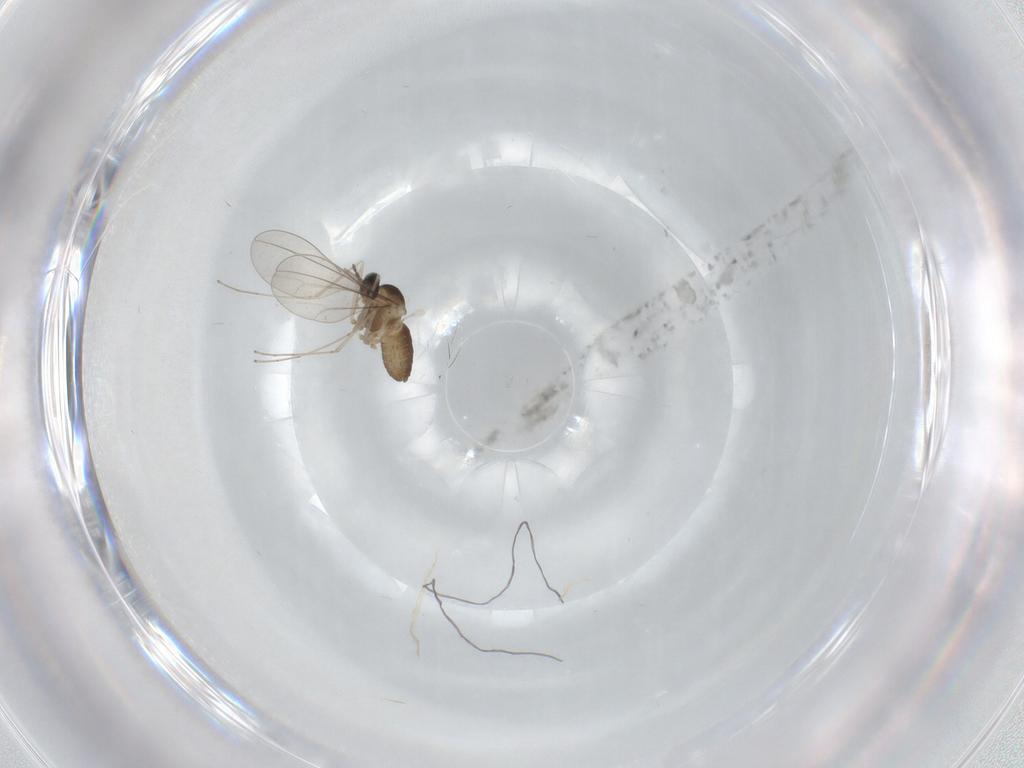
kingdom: Animalia
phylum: Arthropoda
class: Insecta
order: Diptera
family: Cecidomyiidae
